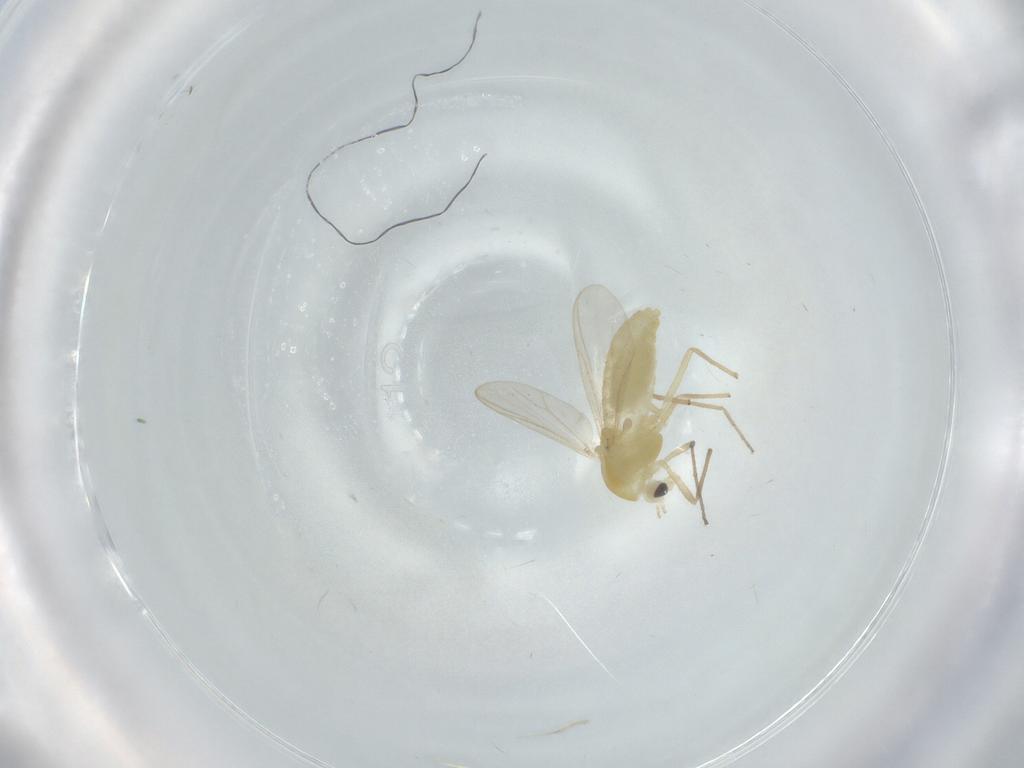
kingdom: Animalia
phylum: Arthropoda
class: Insecta
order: Diptera
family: Chironomidae
